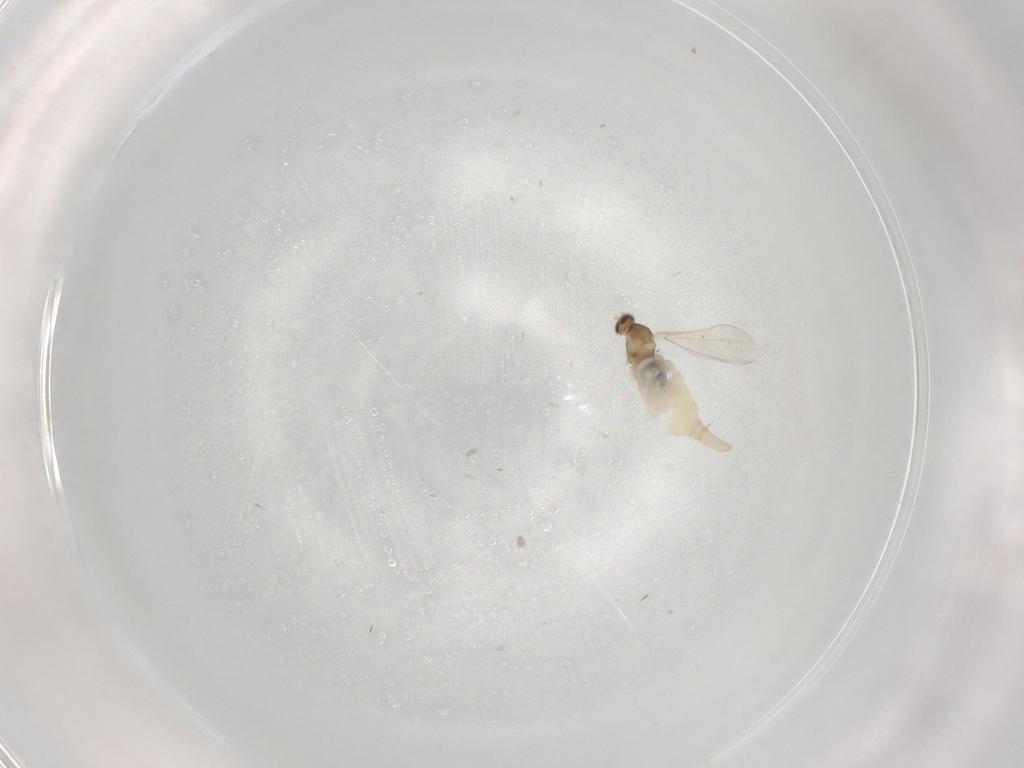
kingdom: Animalia
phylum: Arthropoda
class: Insecta
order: Diptera
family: Cecidomyiidae
